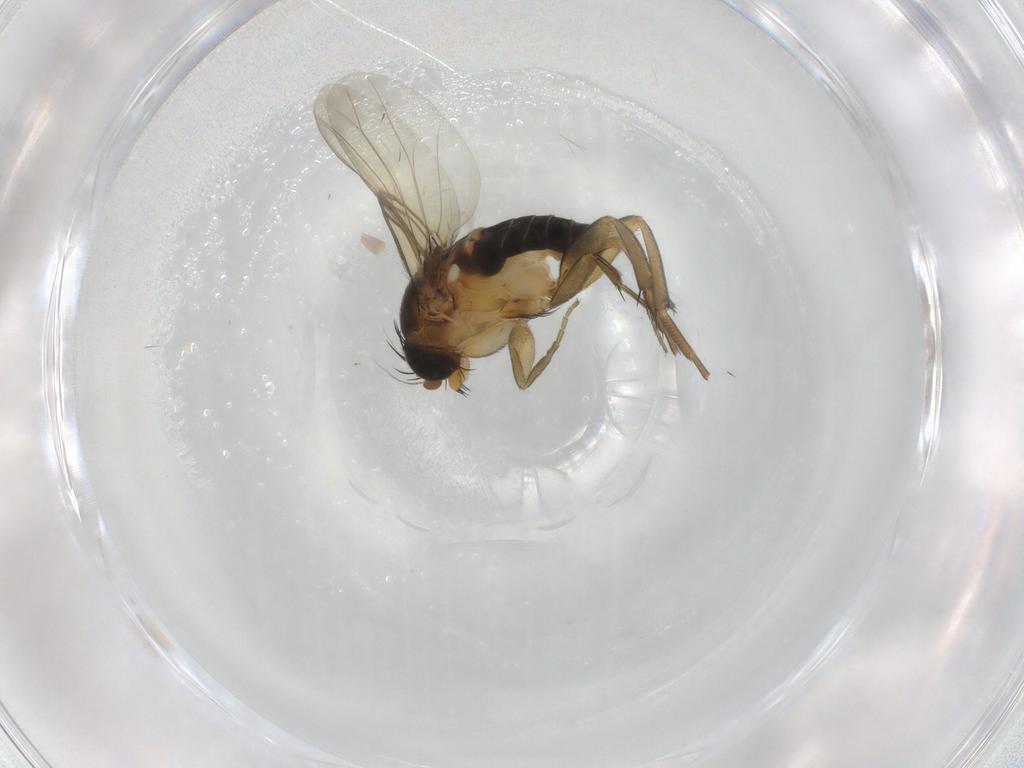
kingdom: Animalia
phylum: Arthropoda
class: Insecta
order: Diptera
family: Phoridae
